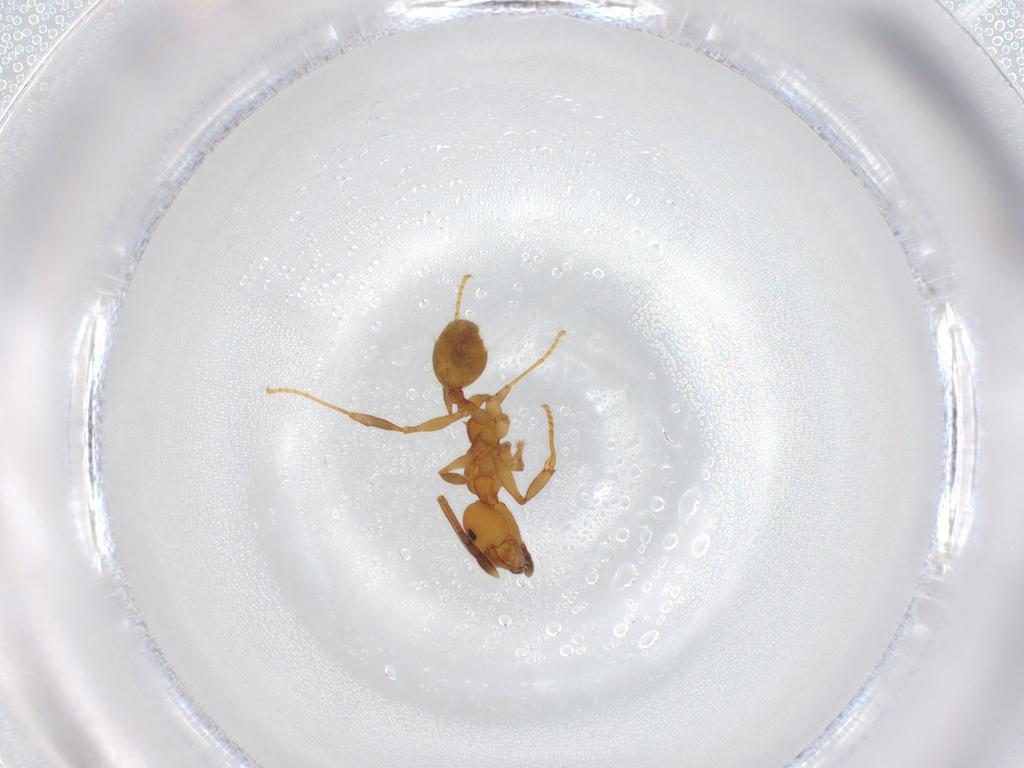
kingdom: Animalia
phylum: Arthropoda
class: Insecta
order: Hymenoptera
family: Formicidae
